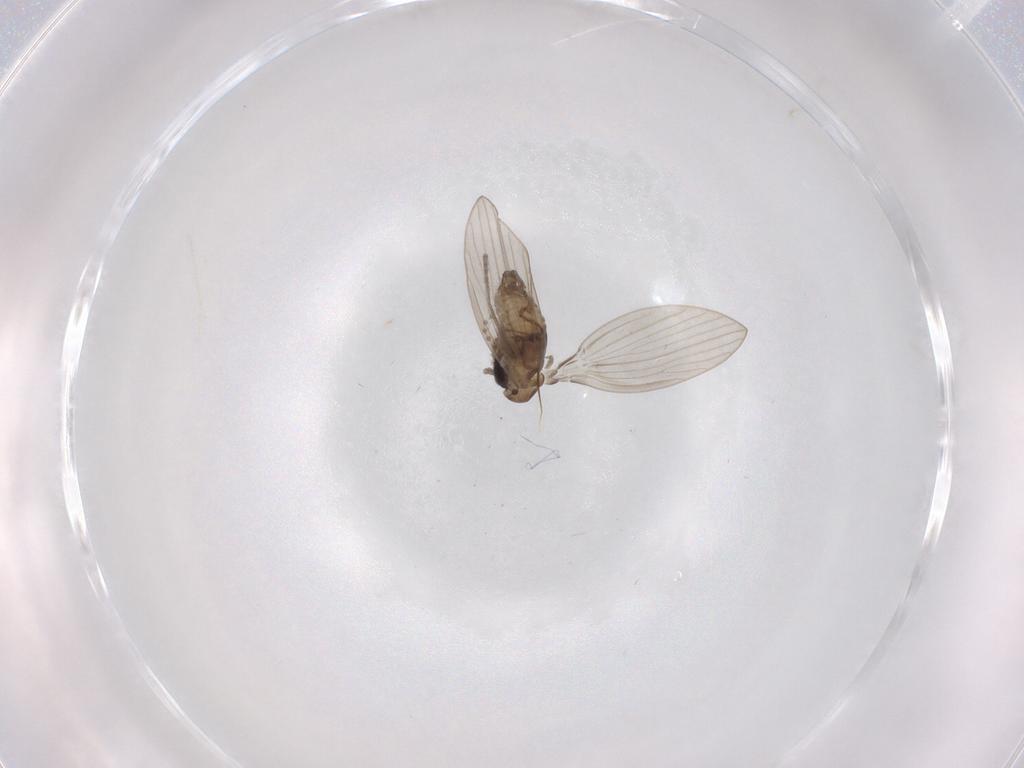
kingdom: Animalia
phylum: Arthropoda
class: Insecta
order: Diptera
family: Psychodidae
